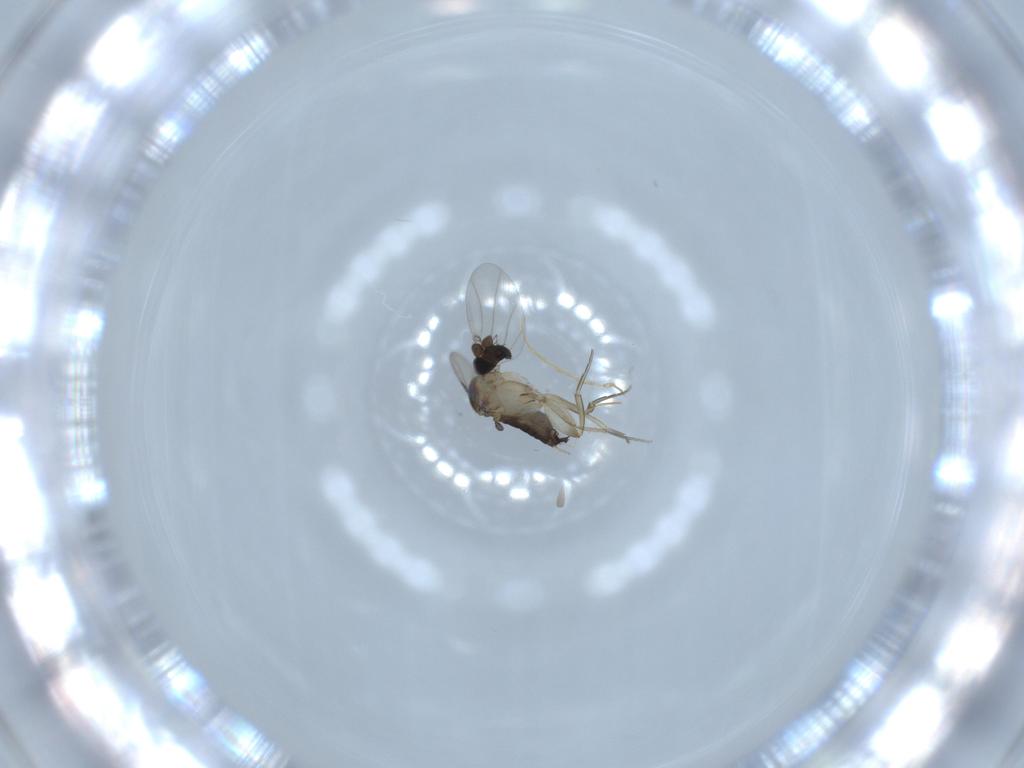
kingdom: Animalia
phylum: Arthropoda
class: Insecta
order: Diptera
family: Phoridae
